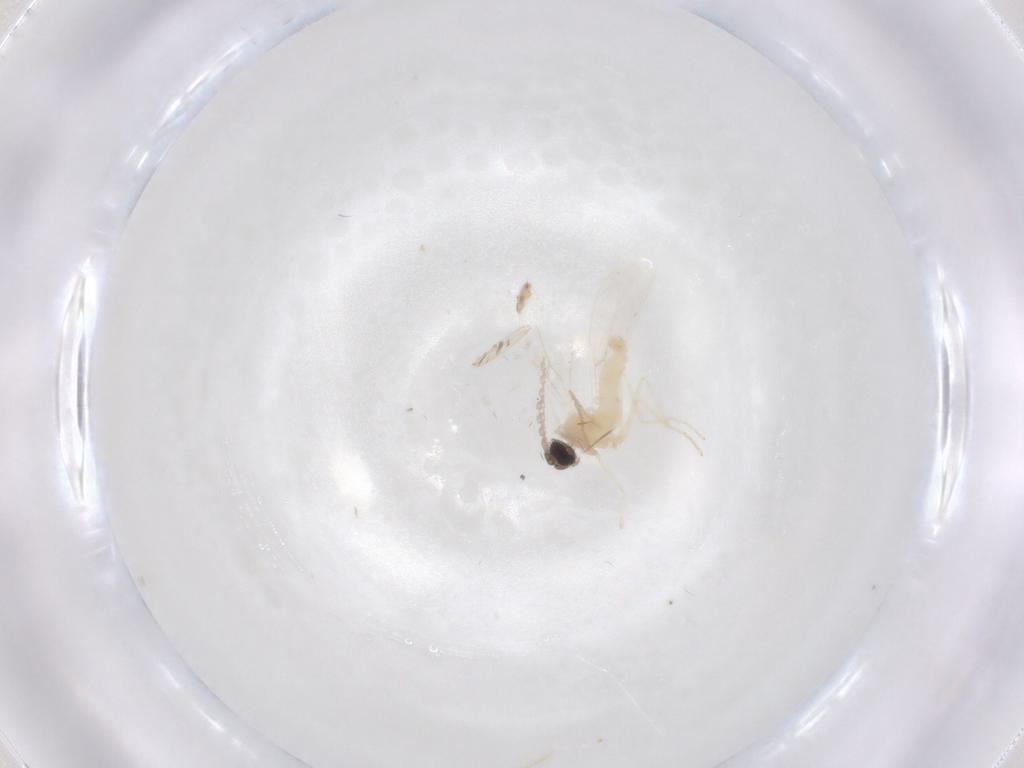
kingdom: Animalia
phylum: Arthropoda
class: Insecta
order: Diptera
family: Cecidomyiidae
